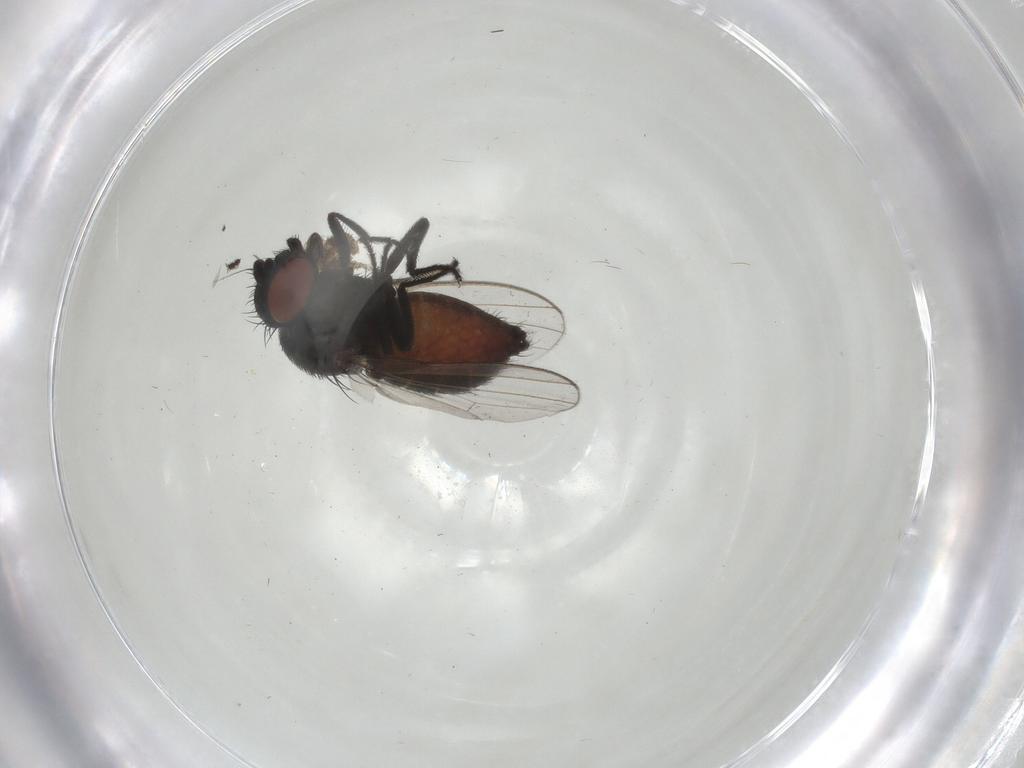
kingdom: Animalia
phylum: Arthropoda
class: Insecta
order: Diptera
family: Milichiidae
